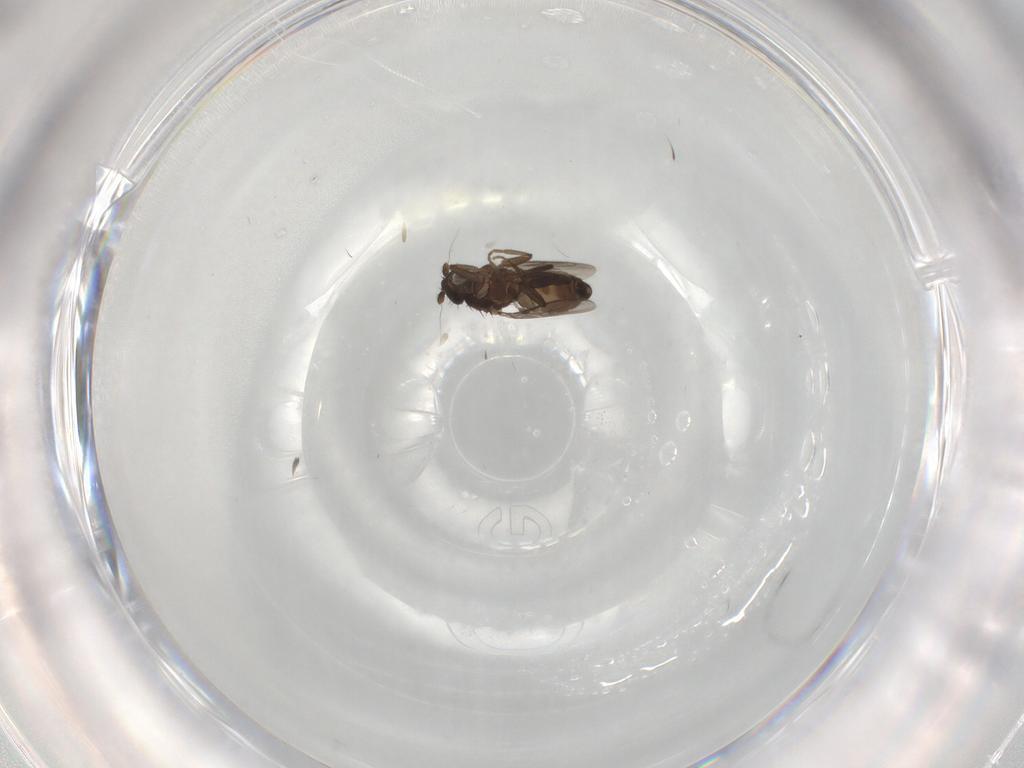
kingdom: Animalia
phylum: Arthropoda
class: Insecta
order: Diptera
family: Sphaeroceridae
